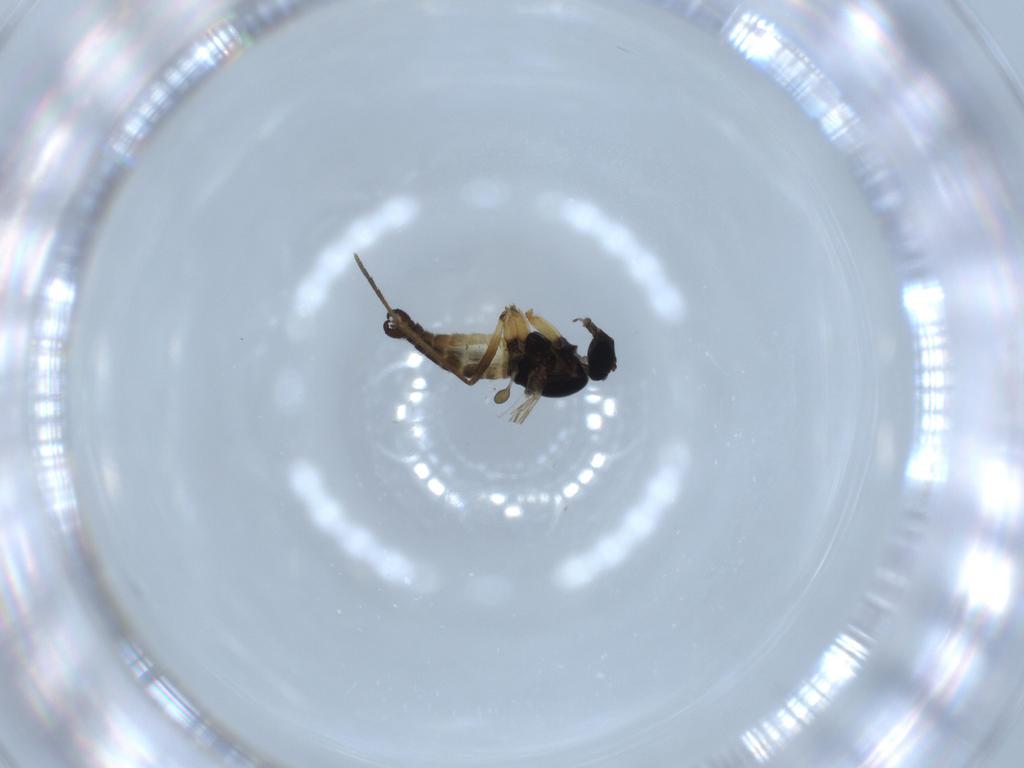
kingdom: Animalia
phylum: Arthropoda
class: Insecta
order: Diptera
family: Sciaridae
